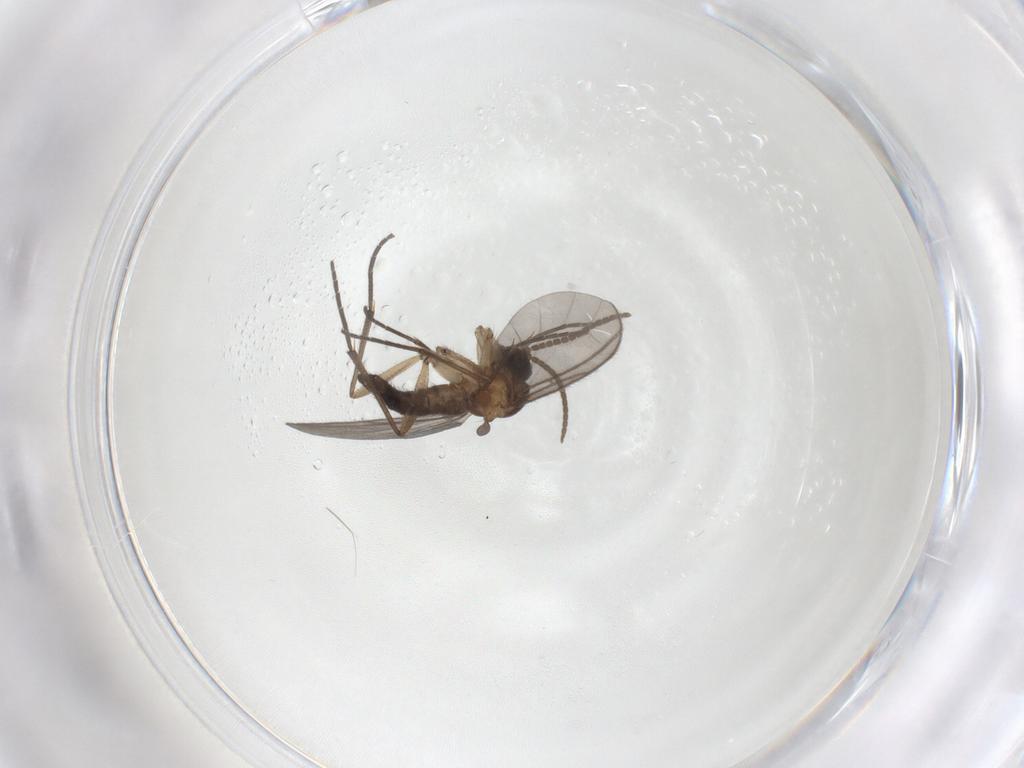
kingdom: Animalia
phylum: Arthropoda
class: Insecta
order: Diptera
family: Sciaridae
